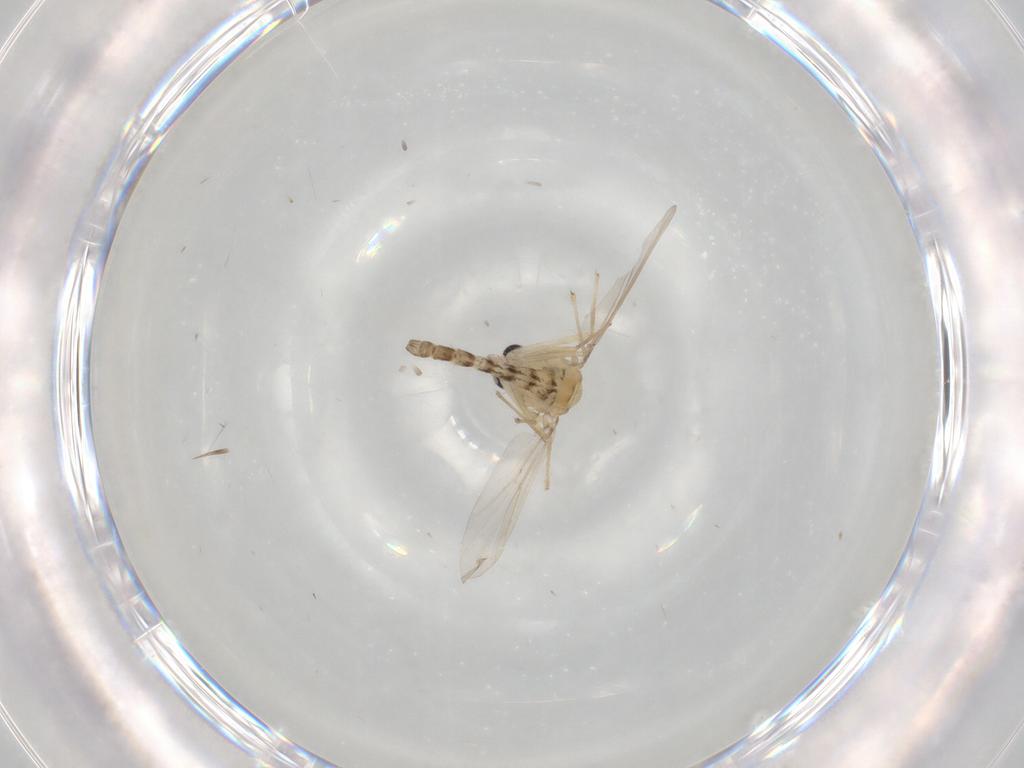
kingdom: Animalia
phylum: Arthropoda
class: Insecta
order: Diptera
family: Chironomidae
